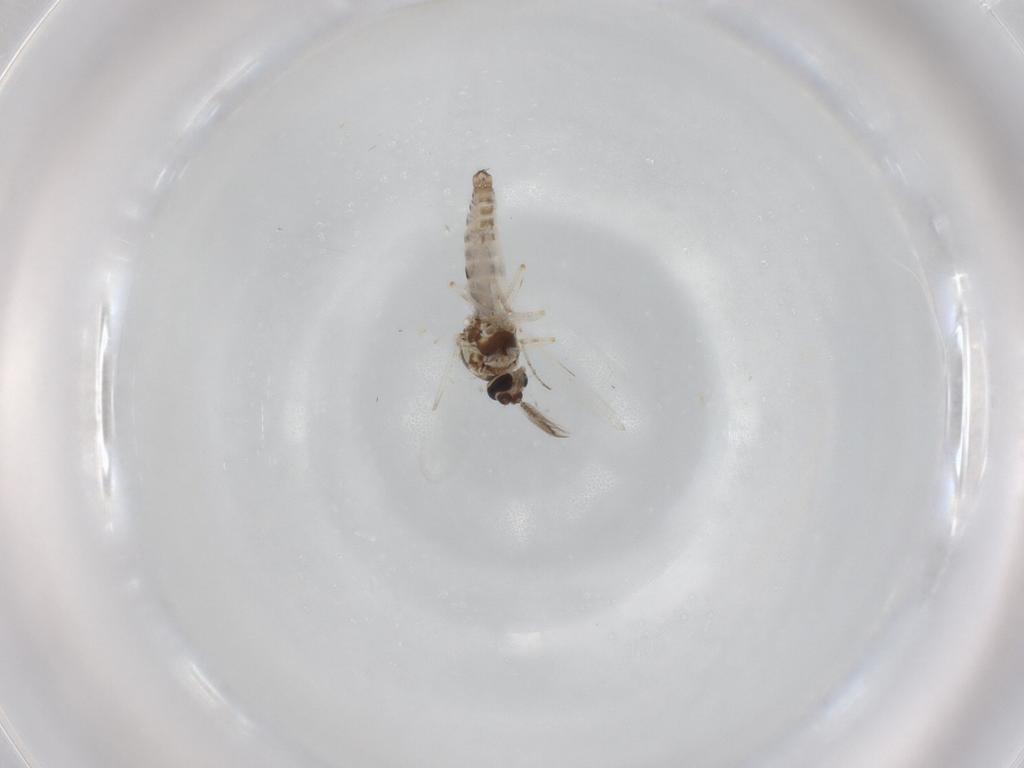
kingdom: Animalia
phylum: Arthropoda
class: Insecta
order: Diptera
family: Ceratopogonidae
